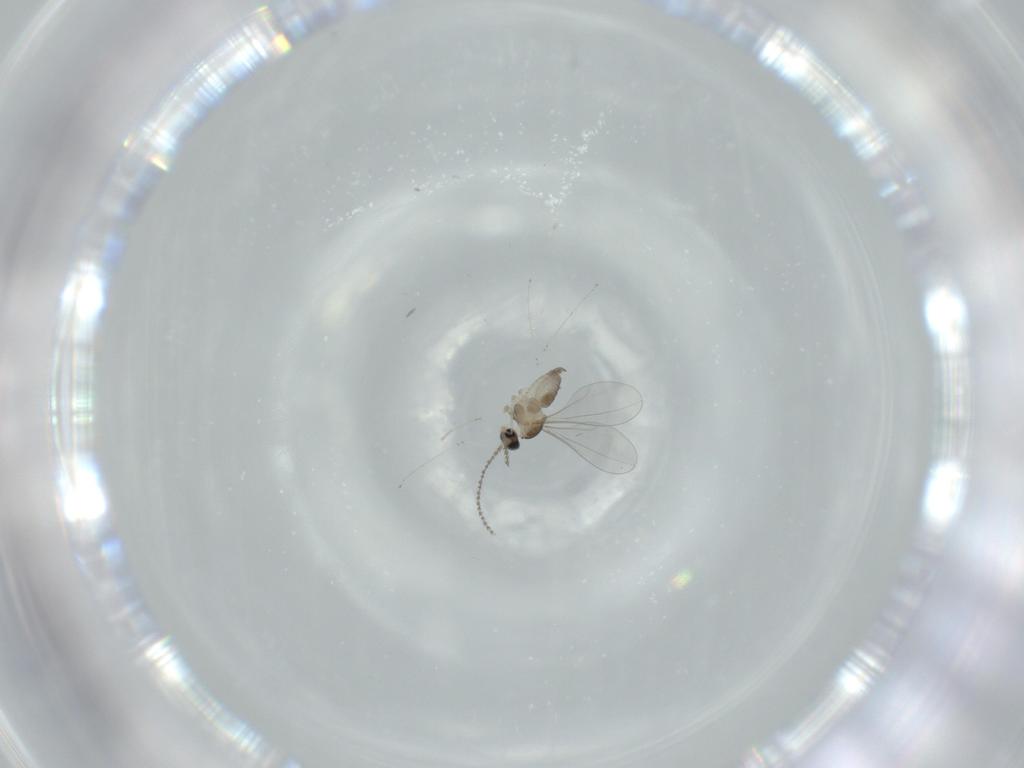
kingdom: Animalia
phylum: Arthropoda
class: Insecta
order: Diptera
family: Cecidomyiidae
